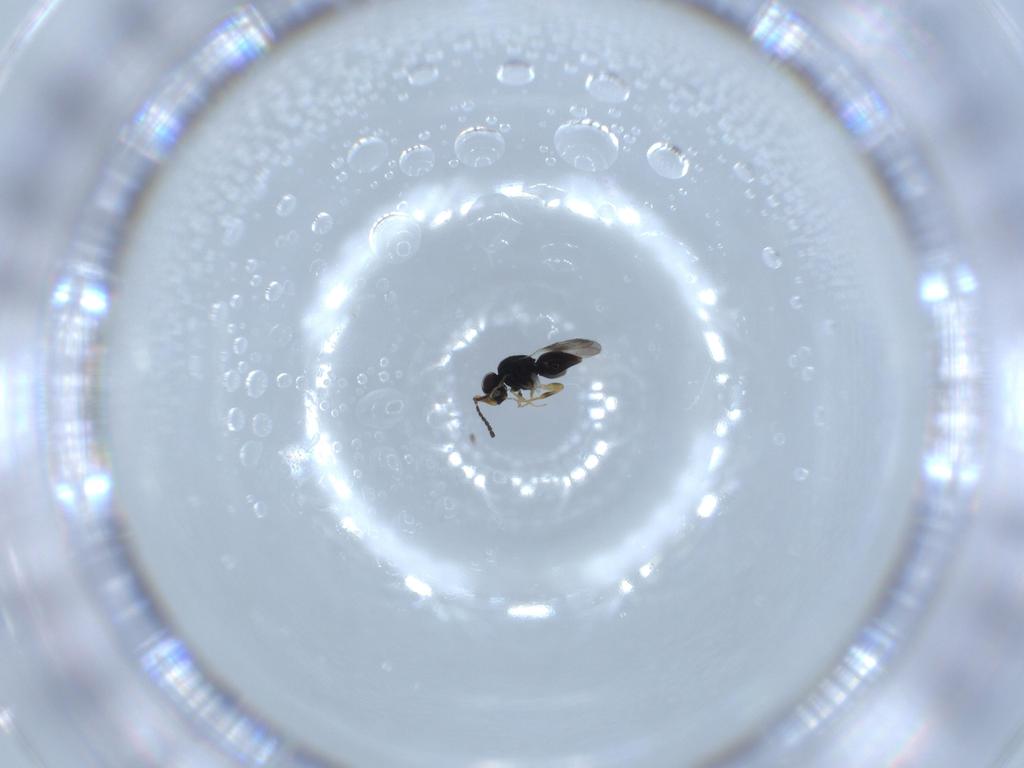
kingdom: Animalia
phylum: Arthropoda
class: Insecta
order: Hymenoptera
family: Ceraphronidae
